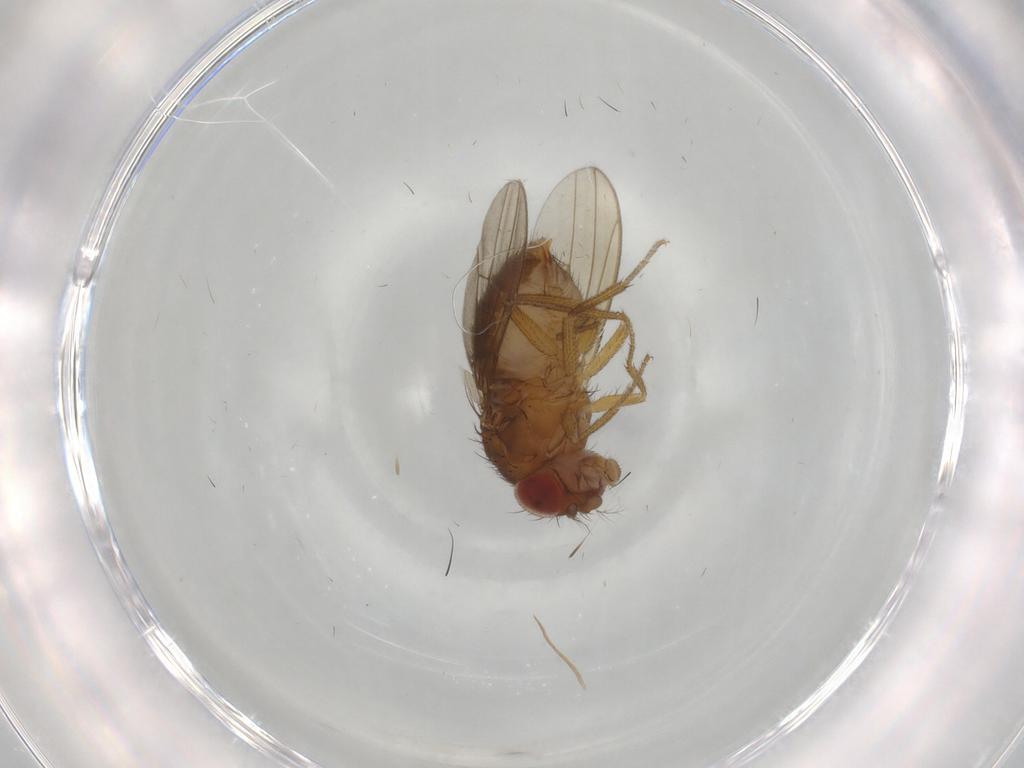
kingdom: Animalia
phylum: Arthropoda
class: Insecta
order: Diptera
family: Drosophilidae
